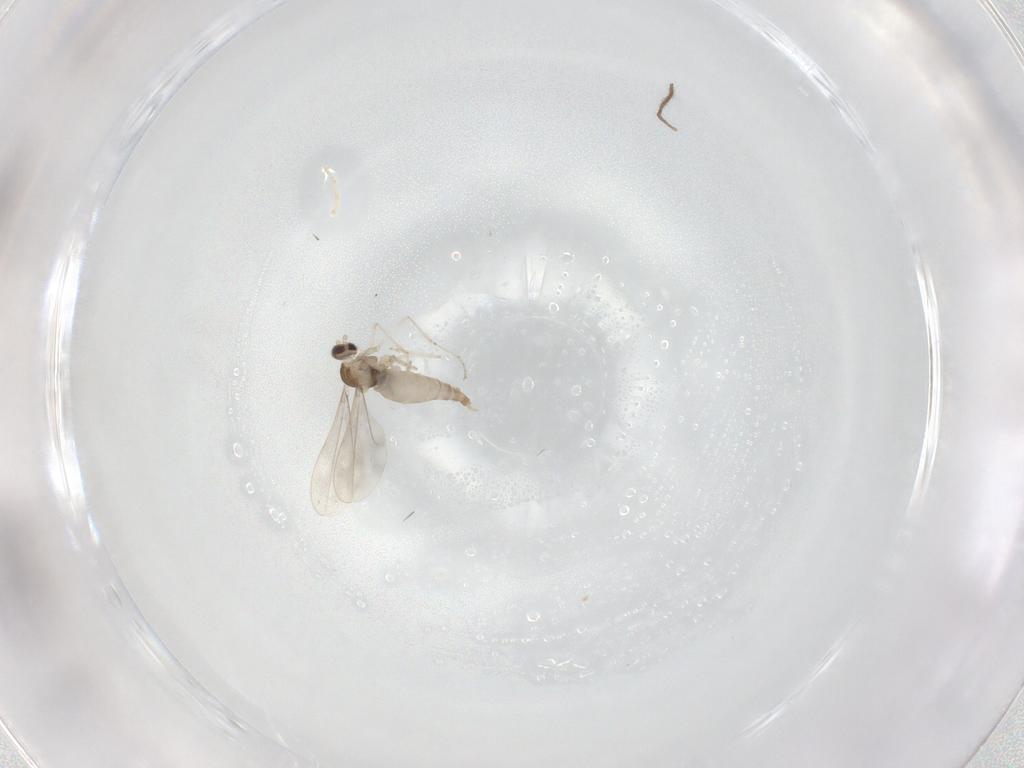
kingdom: Animalia
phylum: Arthropoda
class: Insecta
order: Diptera
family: Cecidomyiidae
